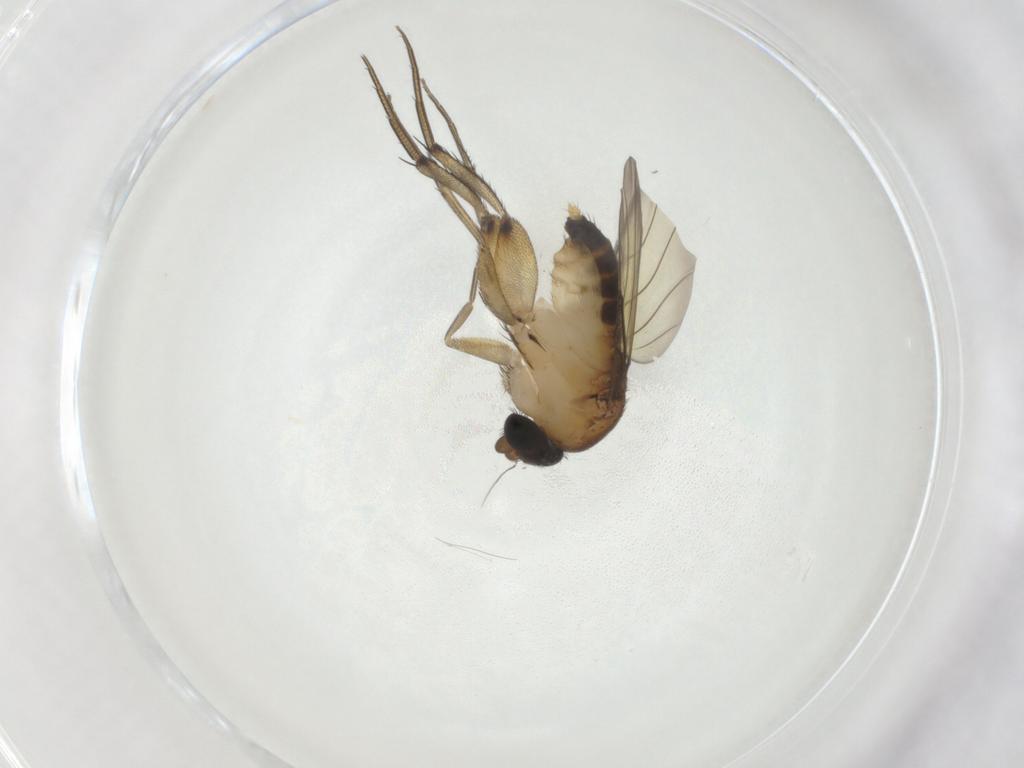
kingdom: Animalia
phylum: Arthropoda
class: Insecta
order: Diptera
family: Phoridae
